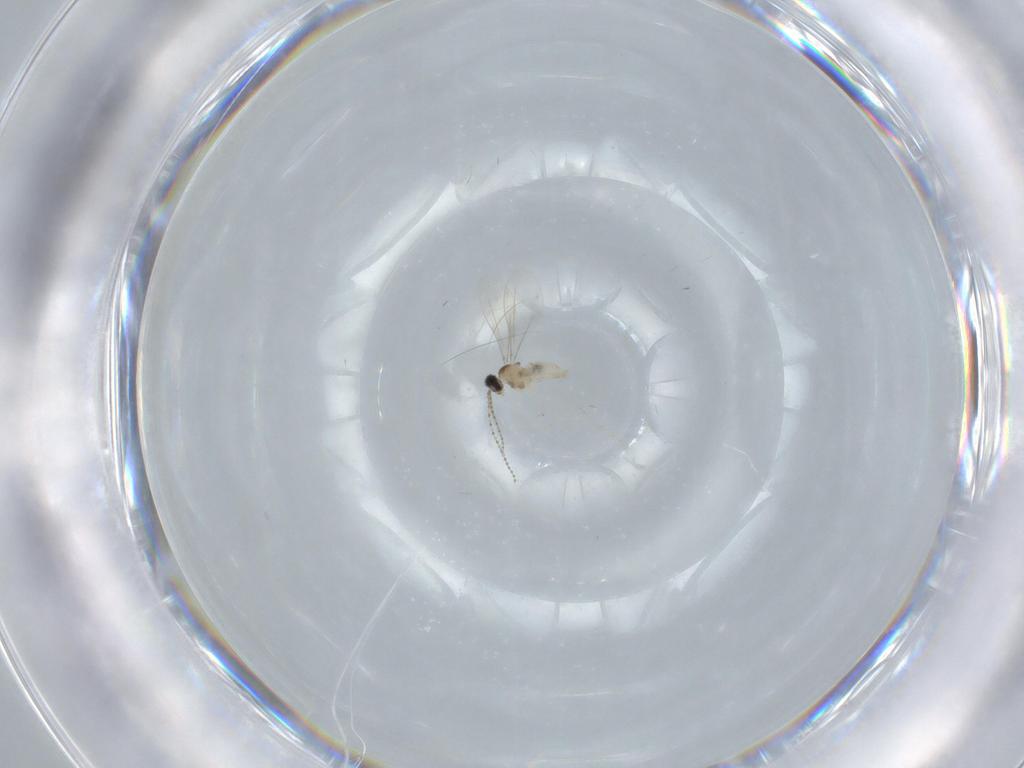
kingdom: Animalia
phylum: Arthropoda
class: Insecta
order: Diptera
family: Cecidomyiidae
